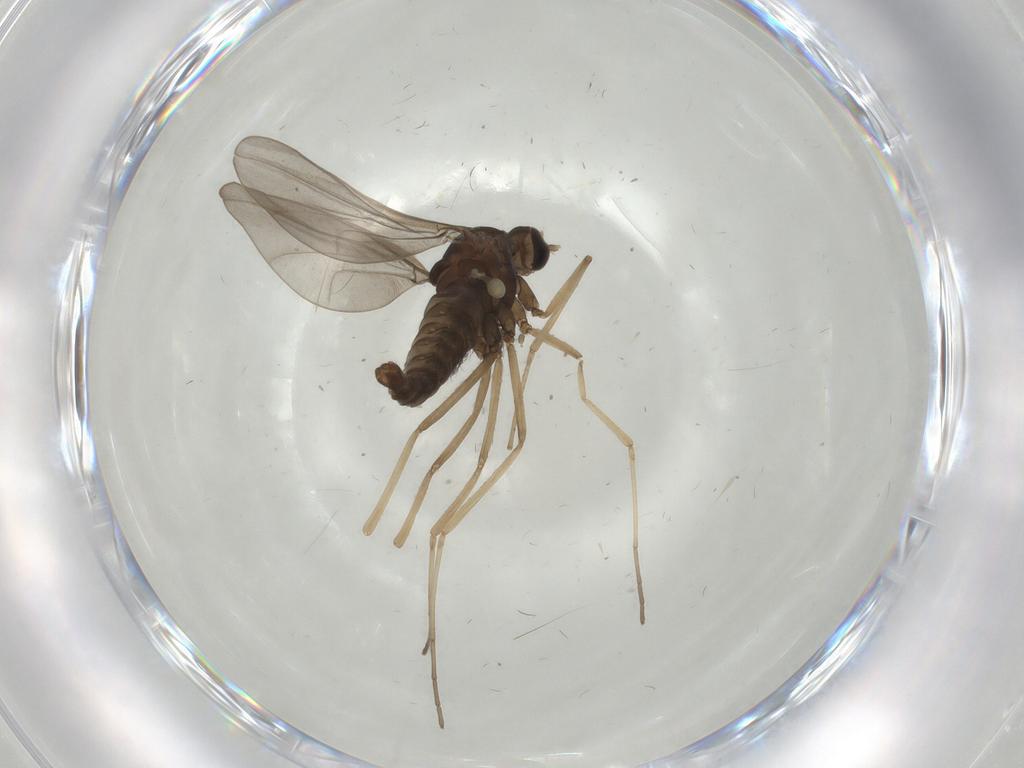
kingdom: Animalia
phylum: Arthropoda
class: Insecta
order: Diptera
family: Cecidomyiidae
